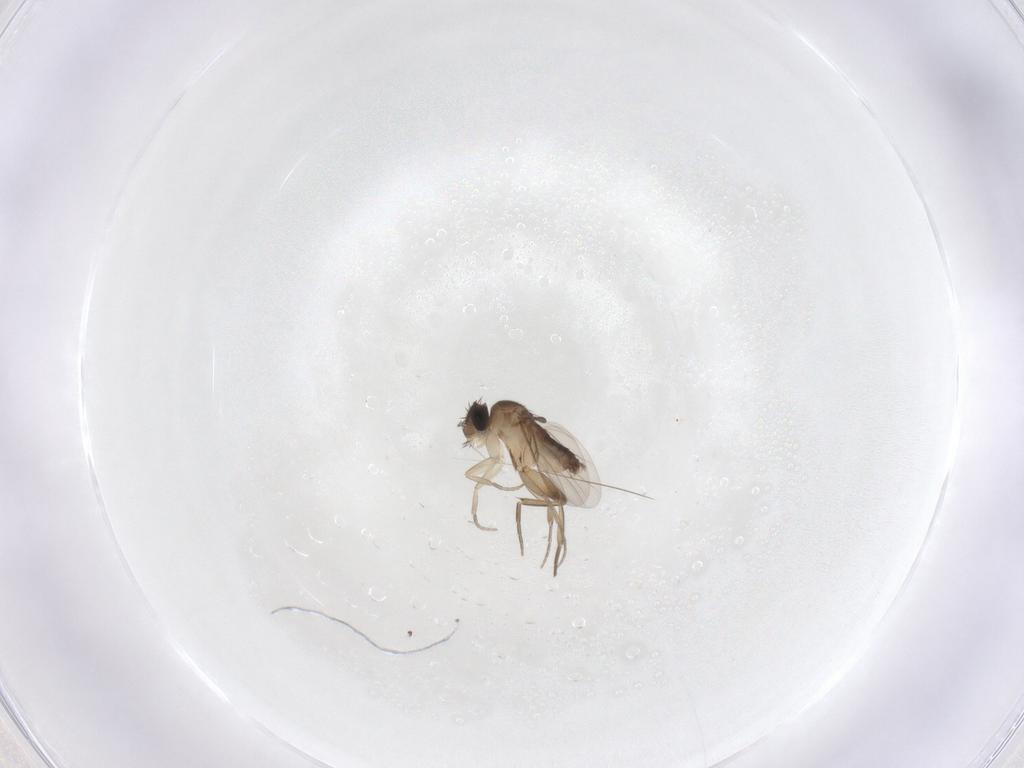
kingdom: Animalia
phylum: Arthropoda
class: Insecta
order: Diptera
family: Phoridae
